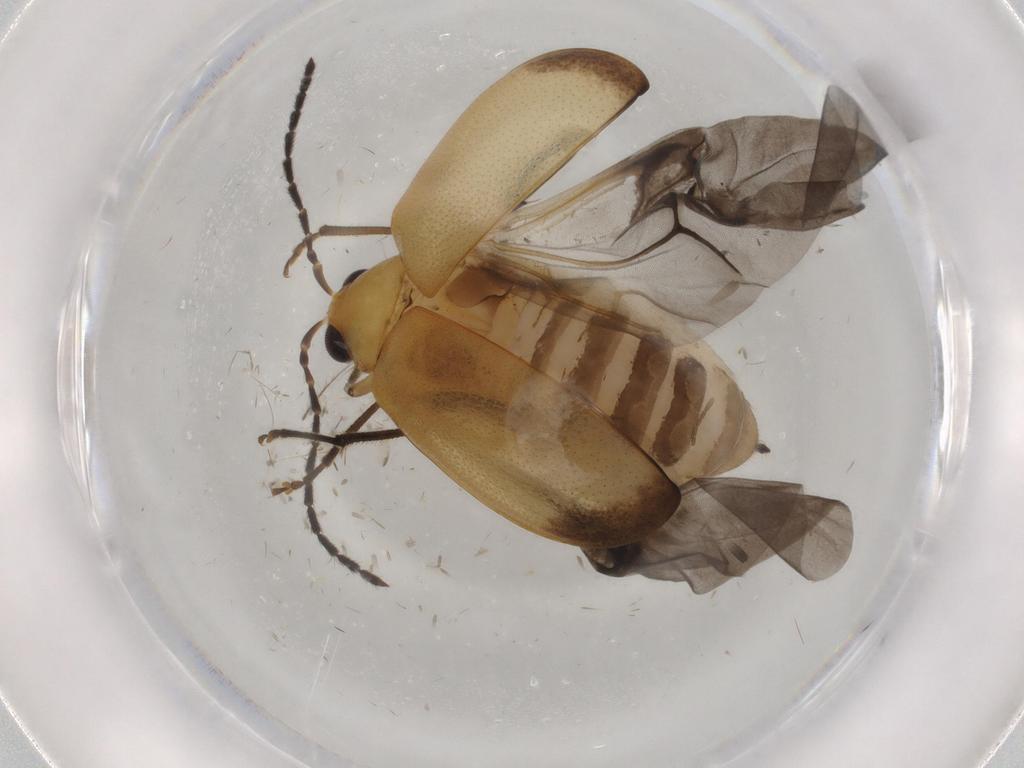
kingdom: Animalia
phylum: Arthropoda
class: Insecta
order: Coleoptera
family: Chrysomelidae
